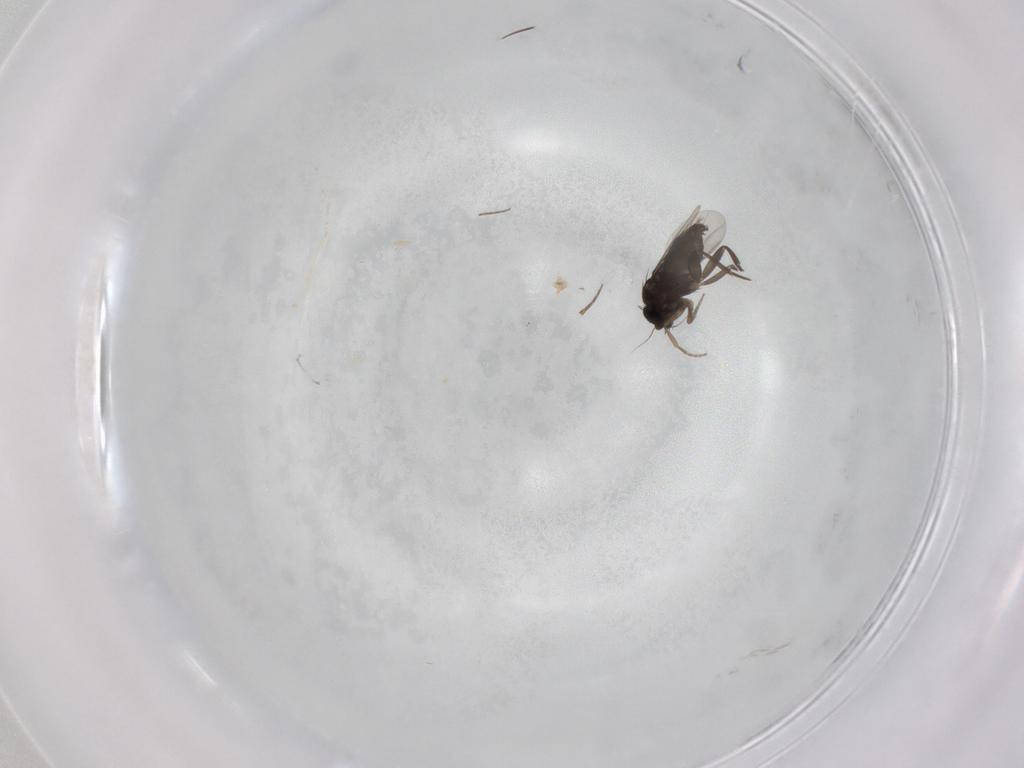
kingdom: Animalia
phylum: Arthropoda
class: Insecta
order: Diptera
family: Phoridae
